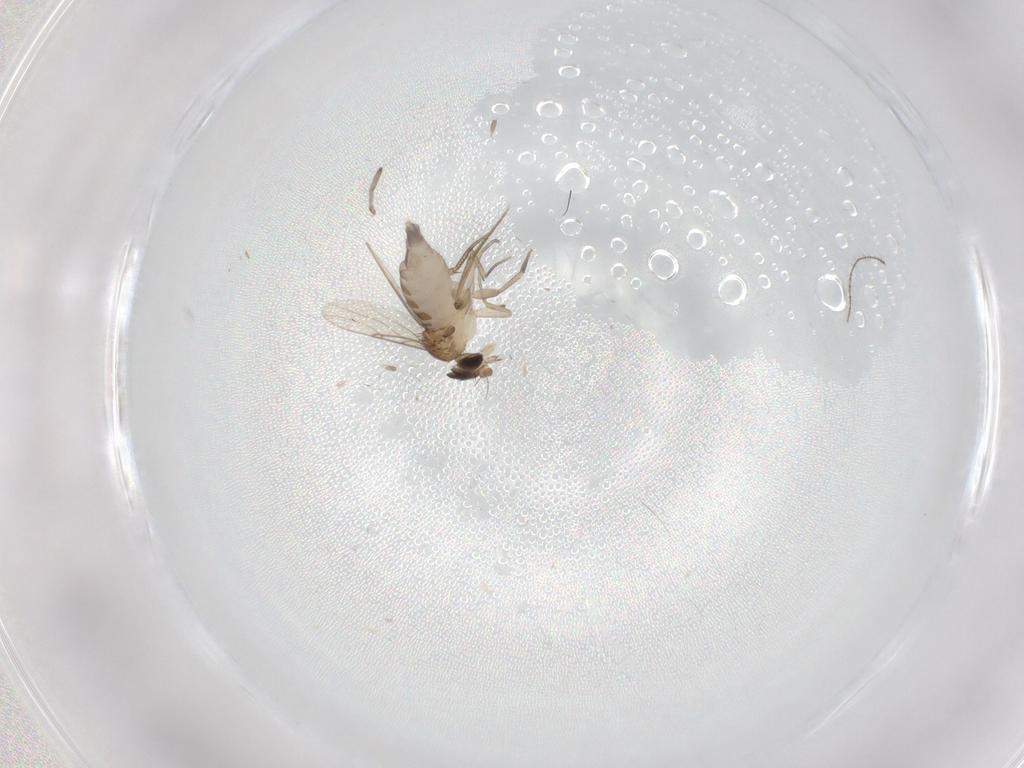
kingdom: Animalia
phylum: Arthropoda
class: Insecta
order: Diptera
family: Phoridae
